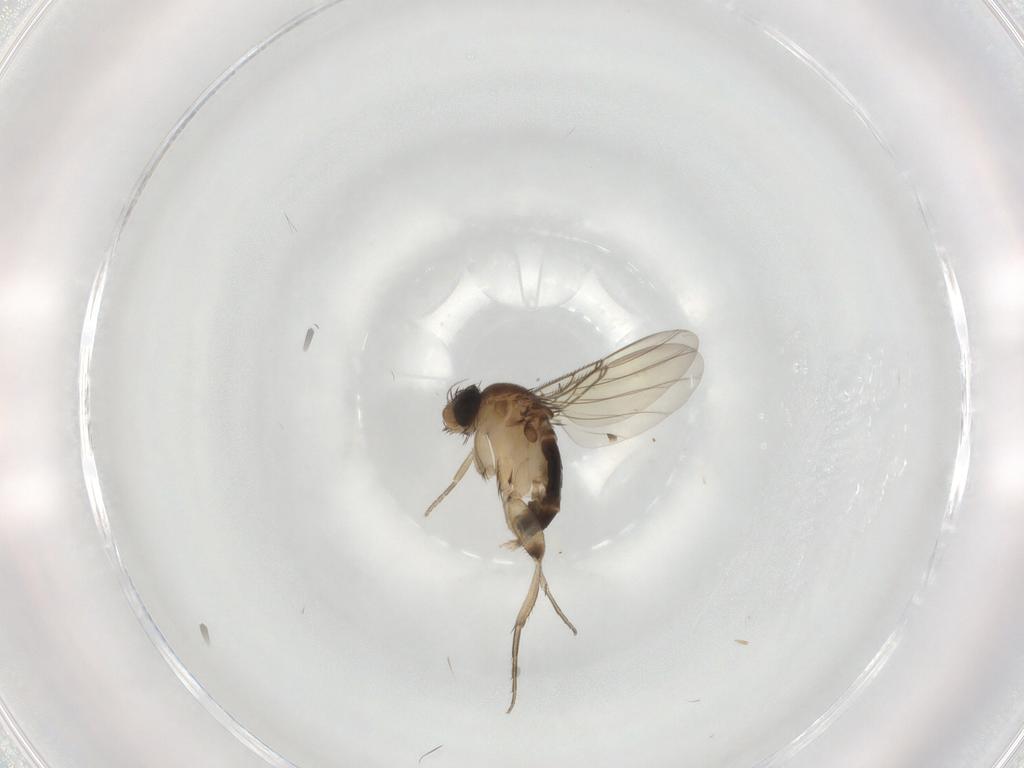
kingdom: Animalia
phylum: Arthropoda
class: Insecta
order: Diptera
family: Phoridae
